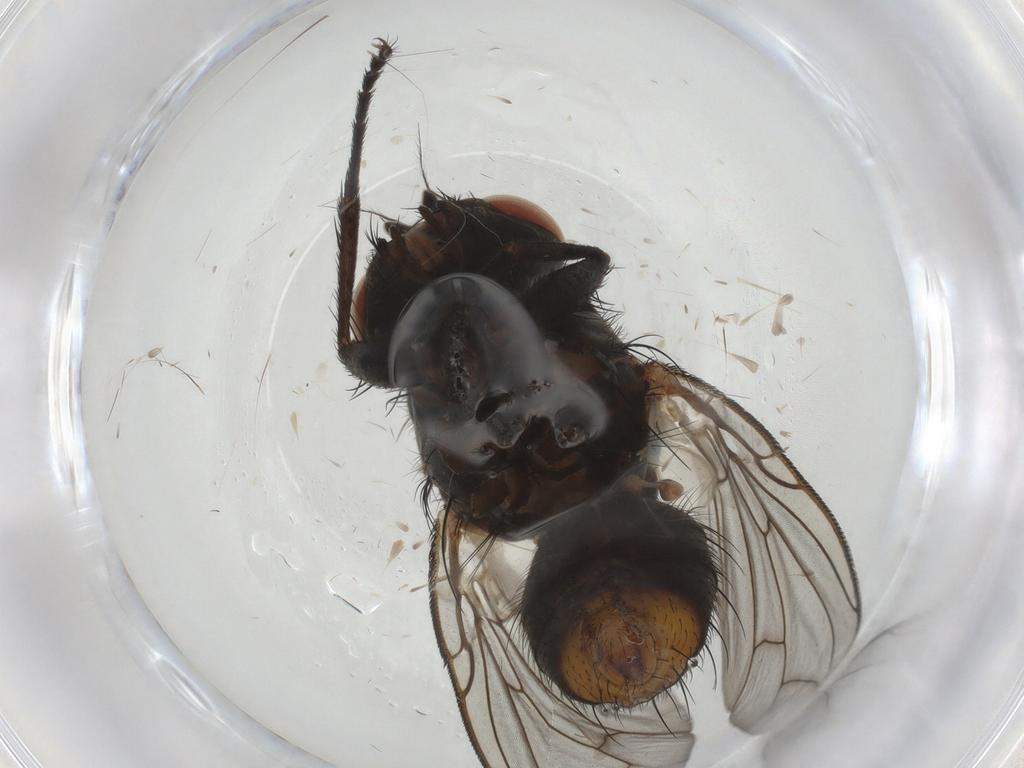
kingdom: Animalia
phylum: Arthropoda
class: Insecta
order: Diptera
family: Sarcophagidae
